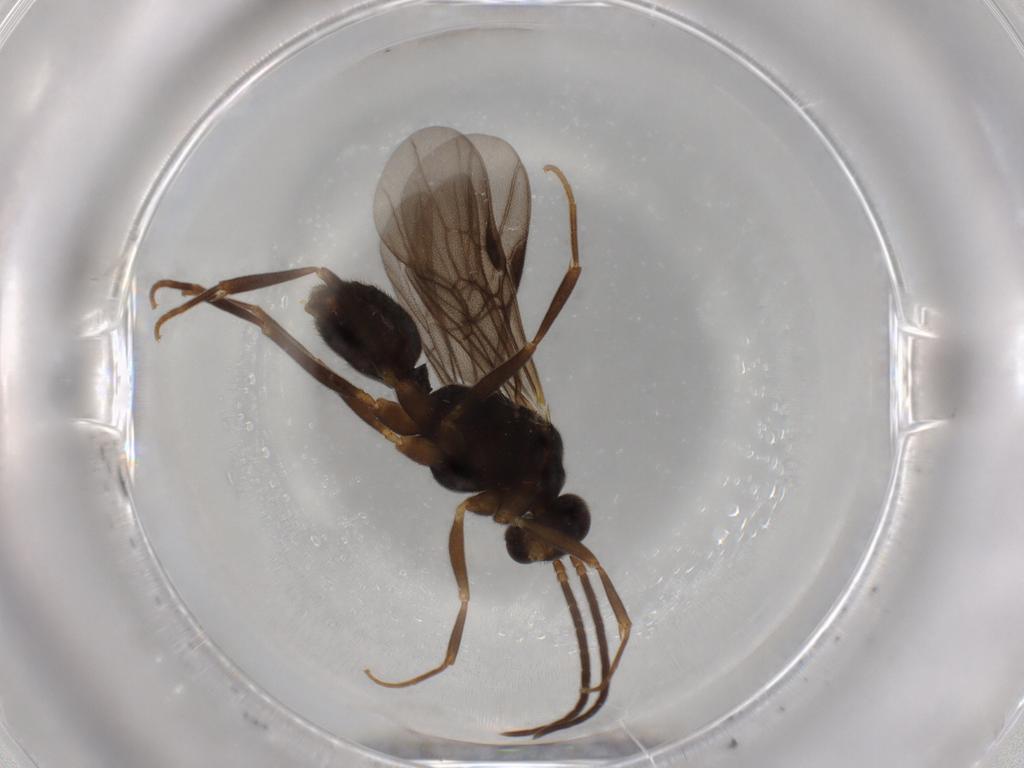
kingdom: Animalia
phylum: Arthropoda
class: Insecta
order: Hymenoptera
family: Formicidae
